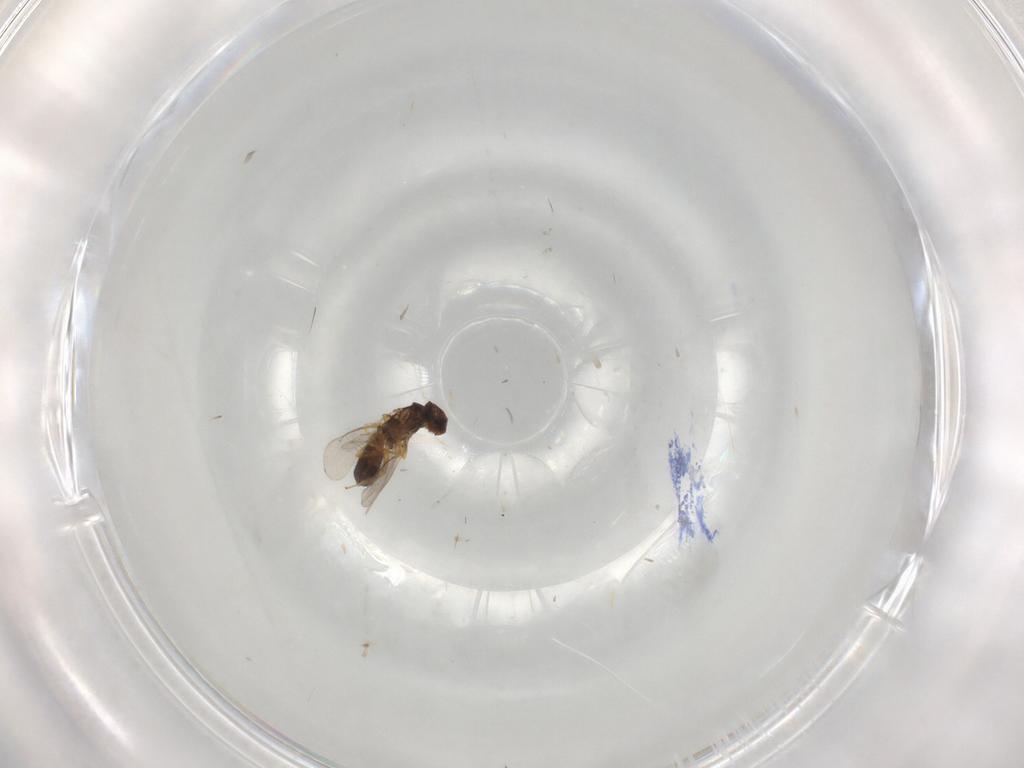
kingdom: Animalia
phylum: Arthropoda
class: Insecta
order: Hymenoptera
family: Eulophidae
